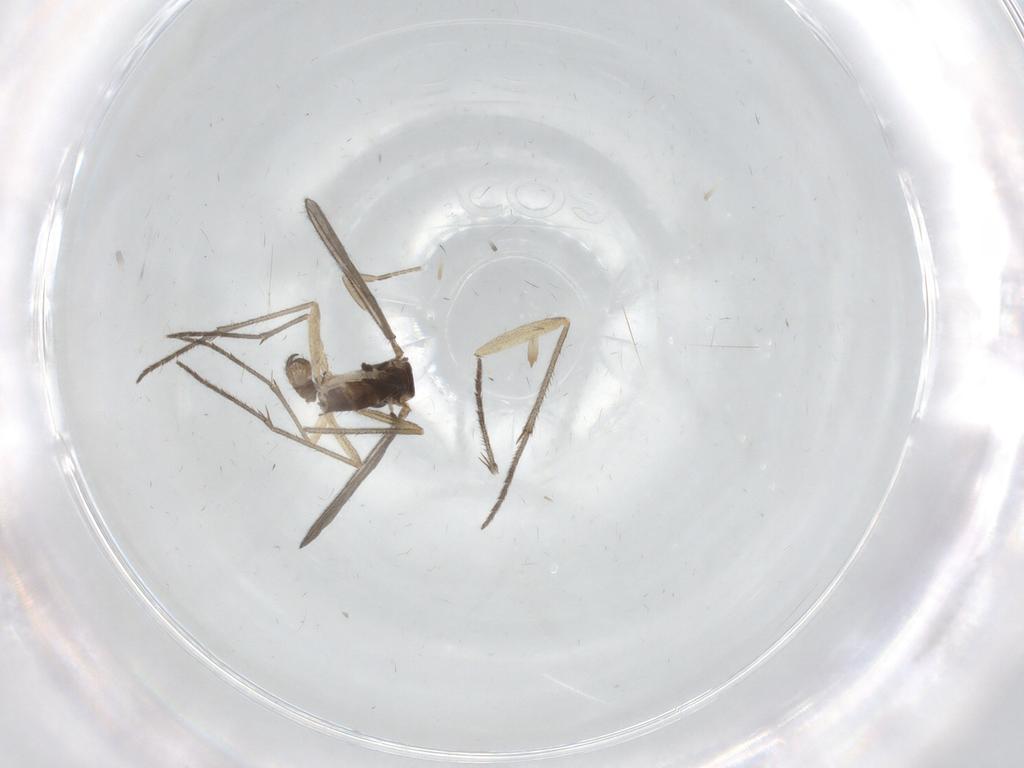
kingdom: Animalia
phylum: Arthropoda
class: Insecta
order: Diptera
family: Sciaridae
